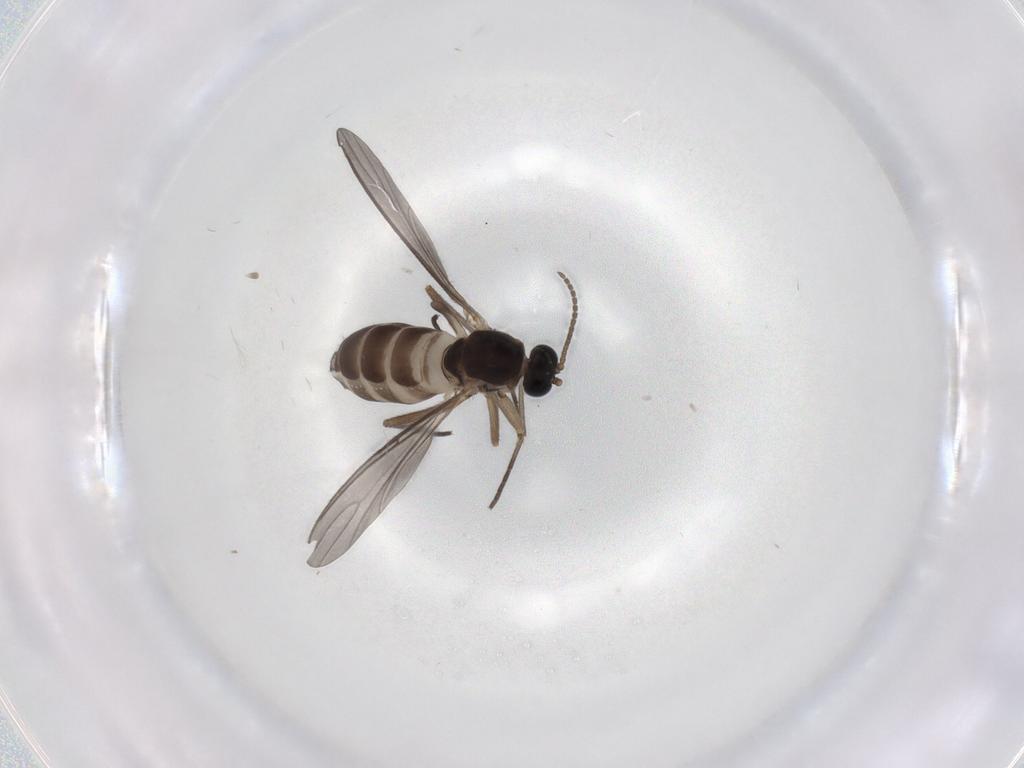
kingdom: Animalia
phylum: Arthropoda
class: Insecta
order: Diptera
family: Sciaridae
